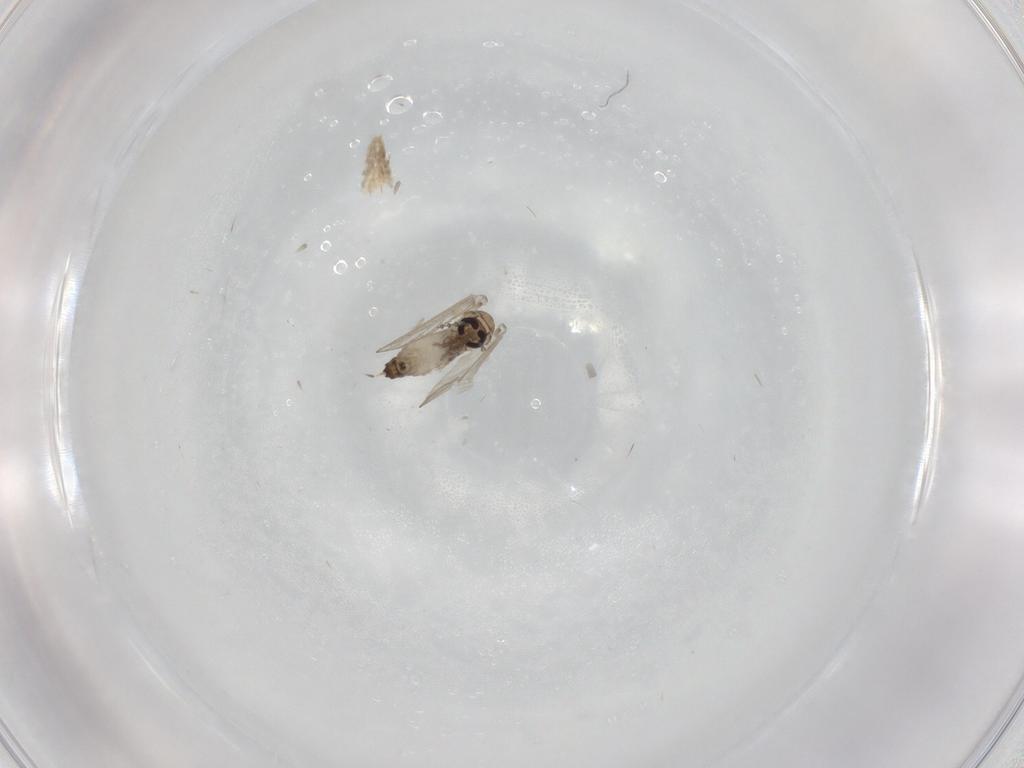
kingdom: Animalia
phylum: Arthropoda
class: Insecta
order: Diptera
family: Psychodidae
